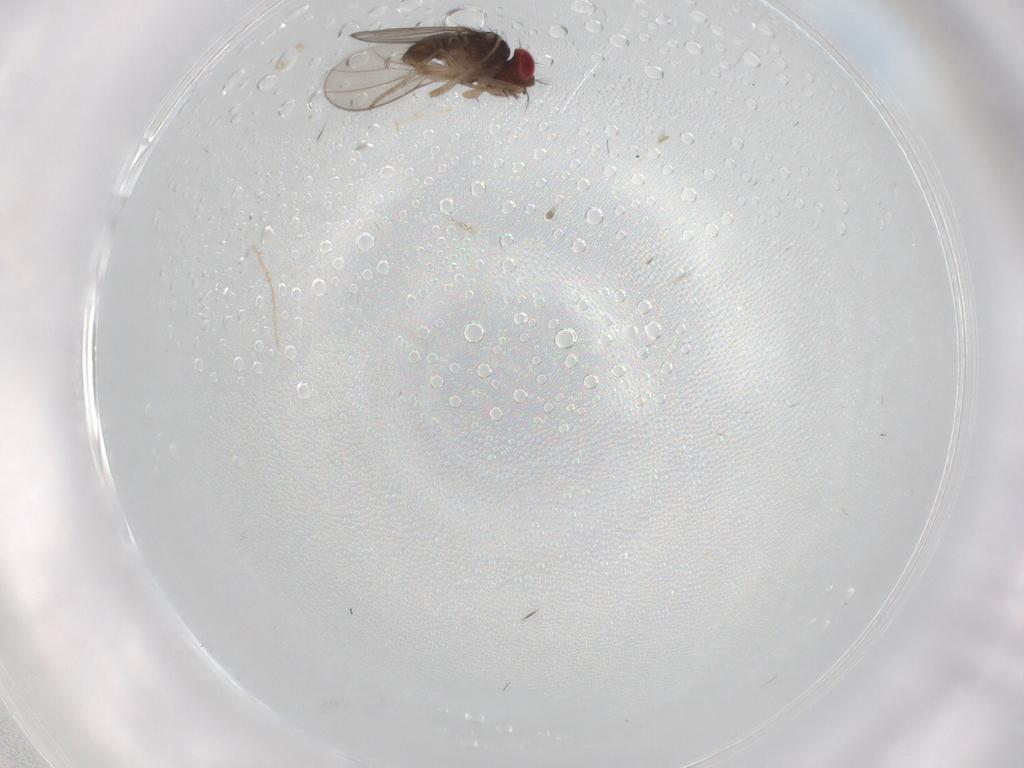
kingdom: Animalia
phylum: Arthropoda
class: Insecta
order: Diptera
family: Drosophilidae
